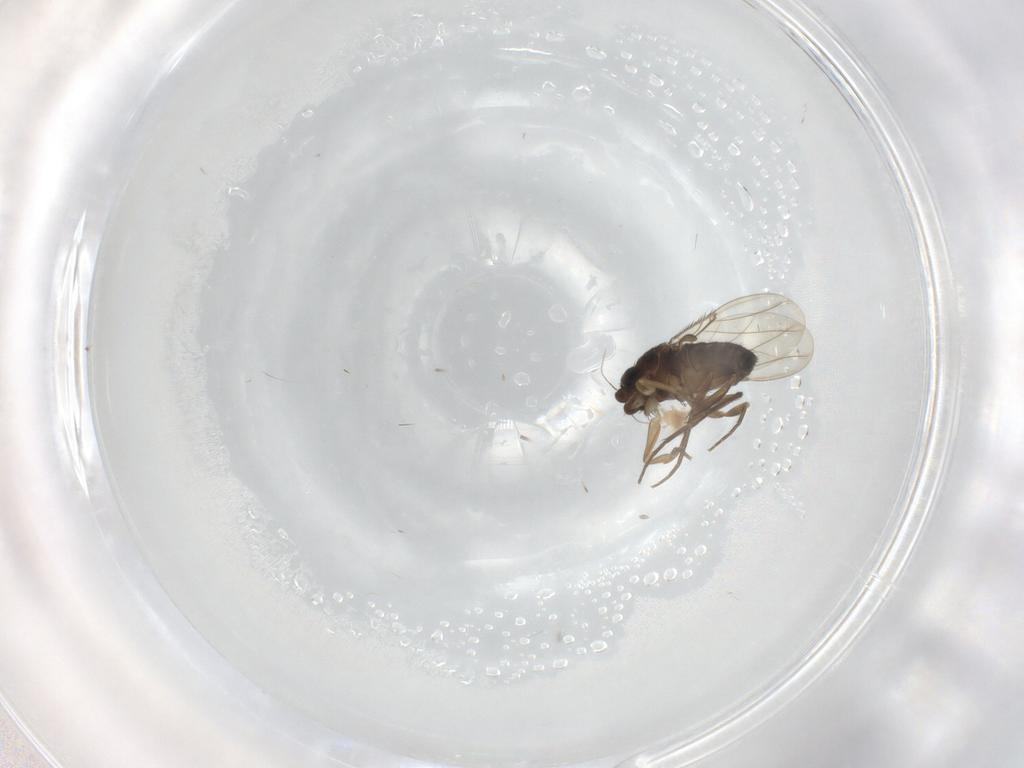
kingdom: Animalia
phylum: Arthropoda
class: Insecta
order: Diptera
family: Phoridae
